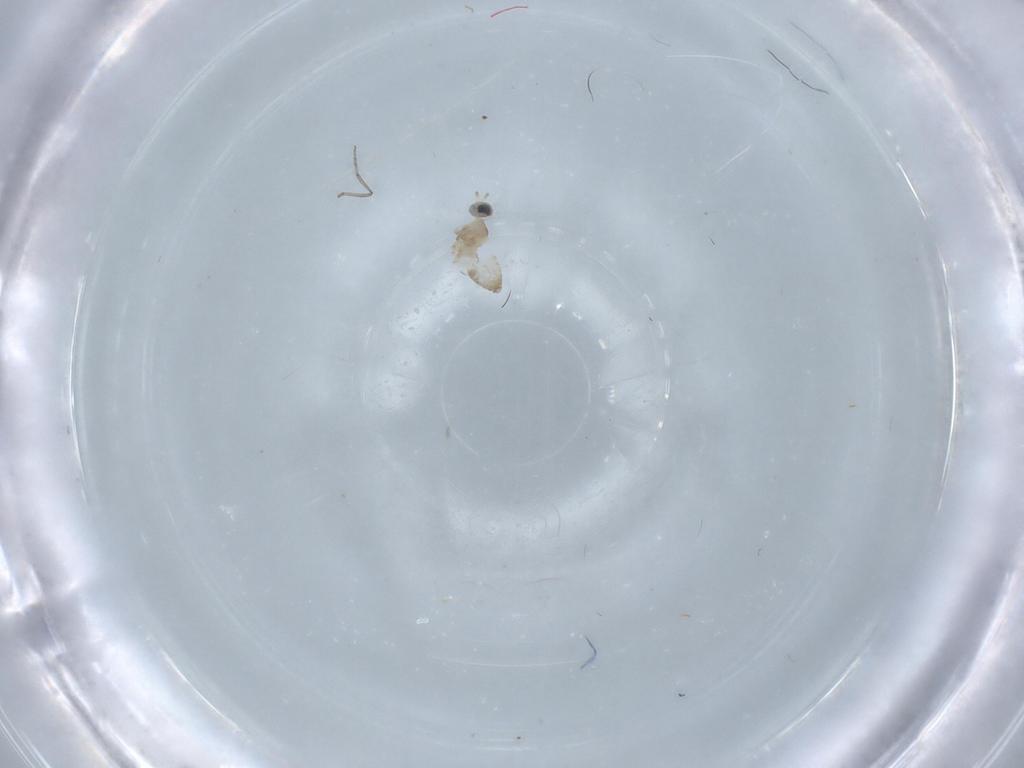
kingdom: Animalia
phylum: Arthropoda
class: Insecta
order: Diptera
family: Cecidomyiidae
